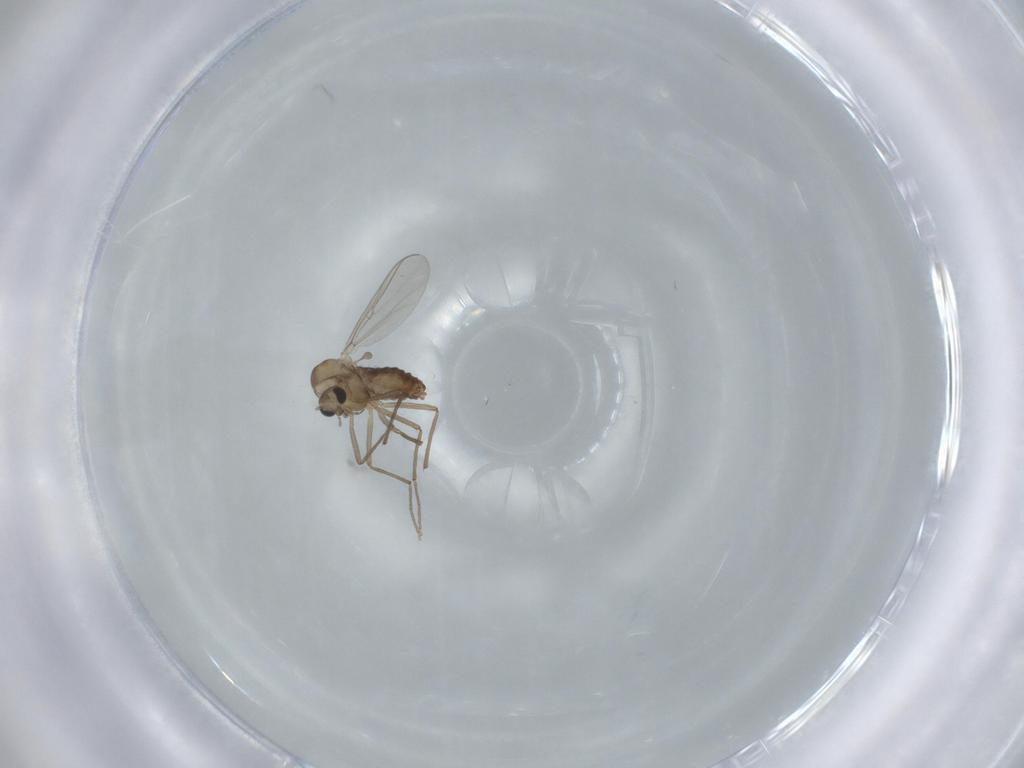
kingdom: Animalia
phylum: Arthropoda
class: Insecta
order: Diptera
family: Chironomidae
